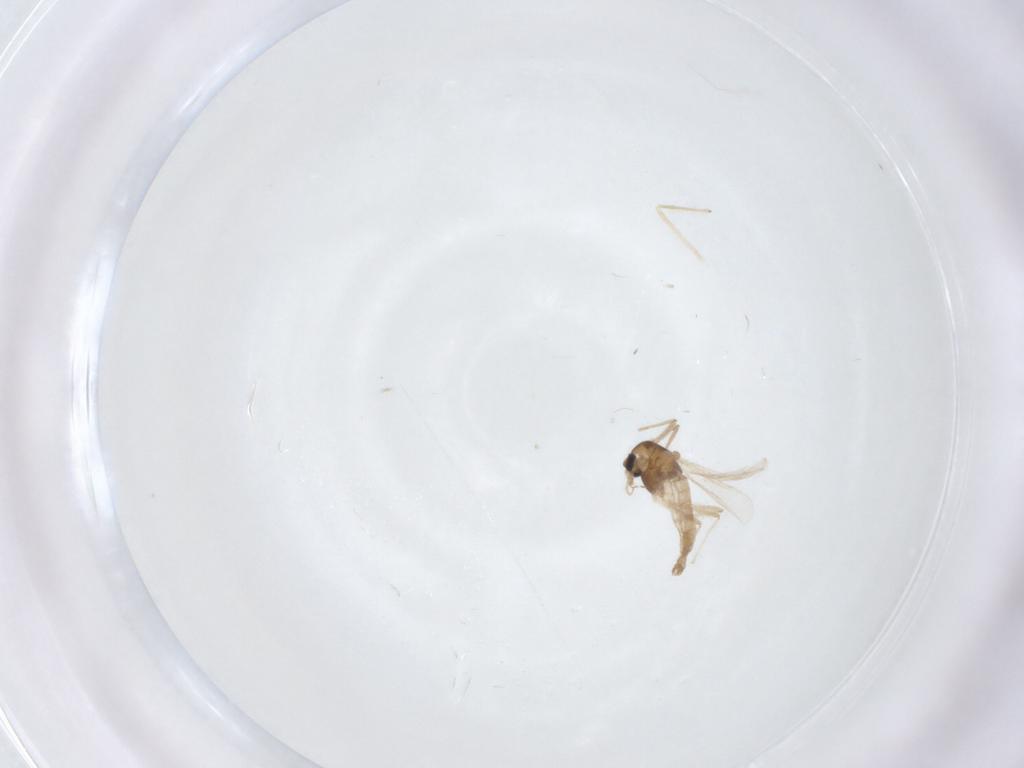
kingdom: Animalia
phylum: Arthropoda
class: Insecta
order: Diptera
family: Chironomidae
